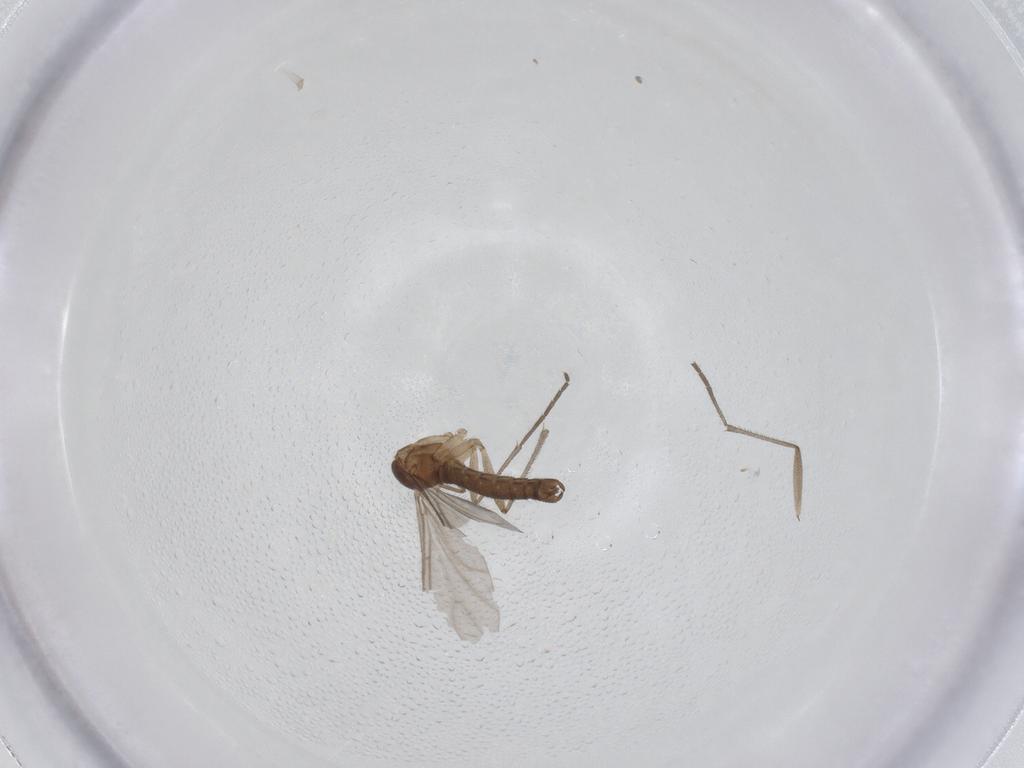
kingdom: Animalia
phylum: Arthropoda
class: Insecta
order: Diptera
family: Sciaridae
